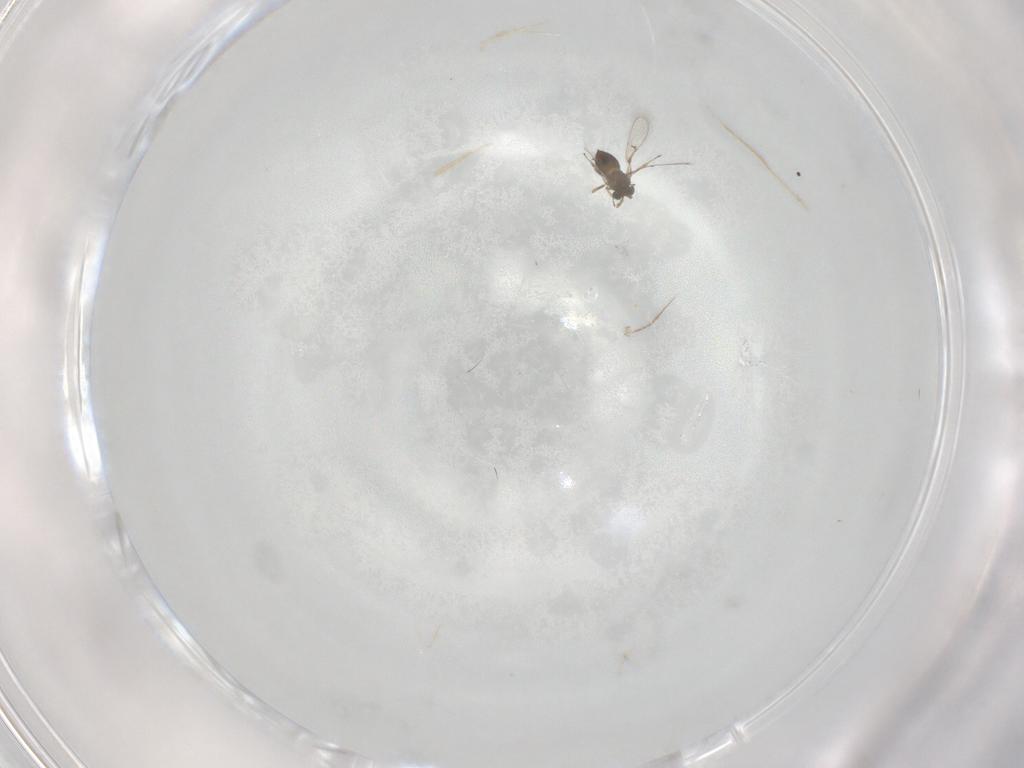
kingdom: Animalia
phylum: Arthropoda
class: Insecta
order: Hymenoptera
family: Trichogrammatidae
